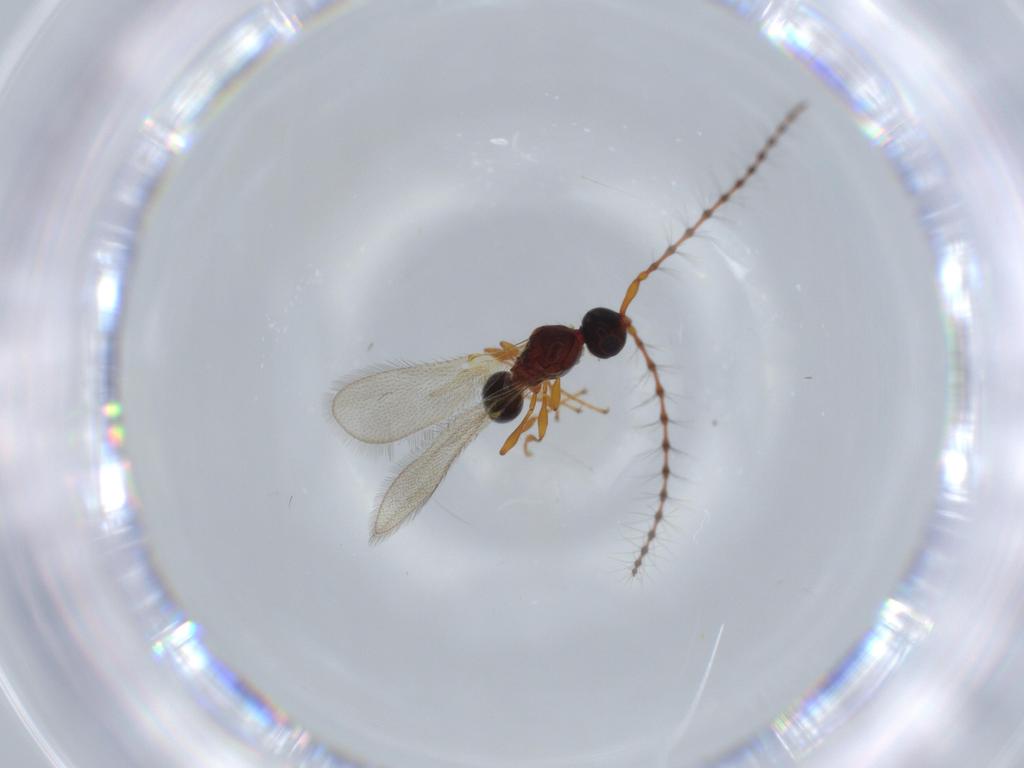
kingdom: Animalia
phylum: Arthropoda
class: Insecta
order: Hymenoptera
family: Diapriidae
